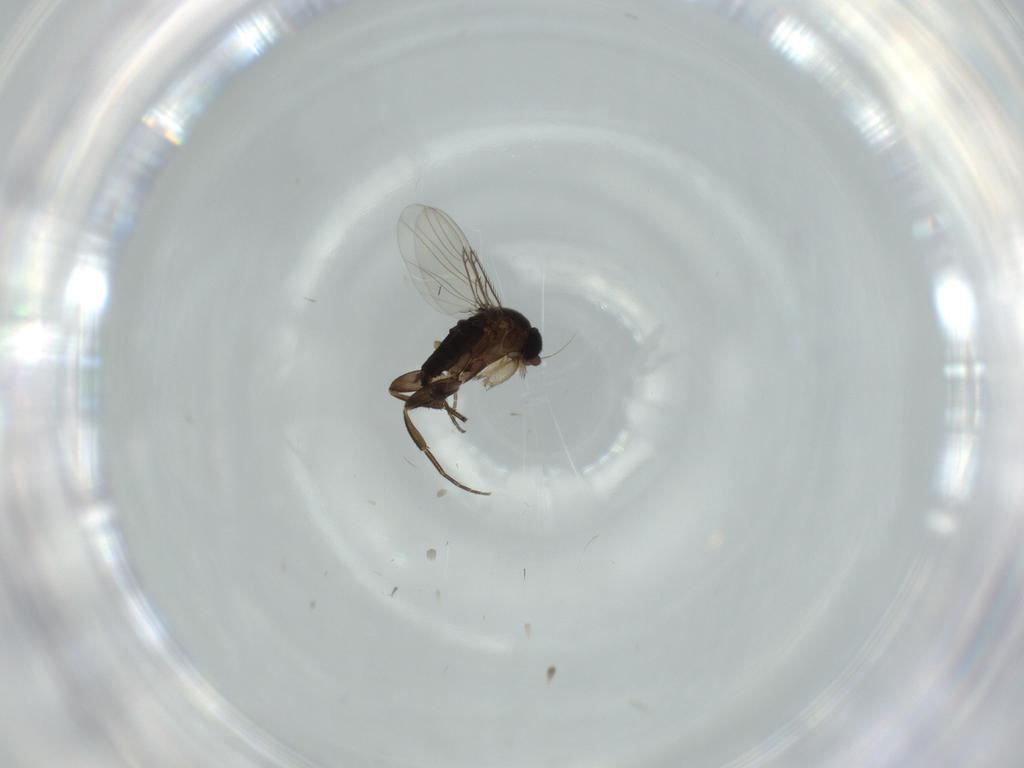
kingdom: Animalia
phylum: Arthropoda
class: Insecta
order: Diptera
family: Phoridae
